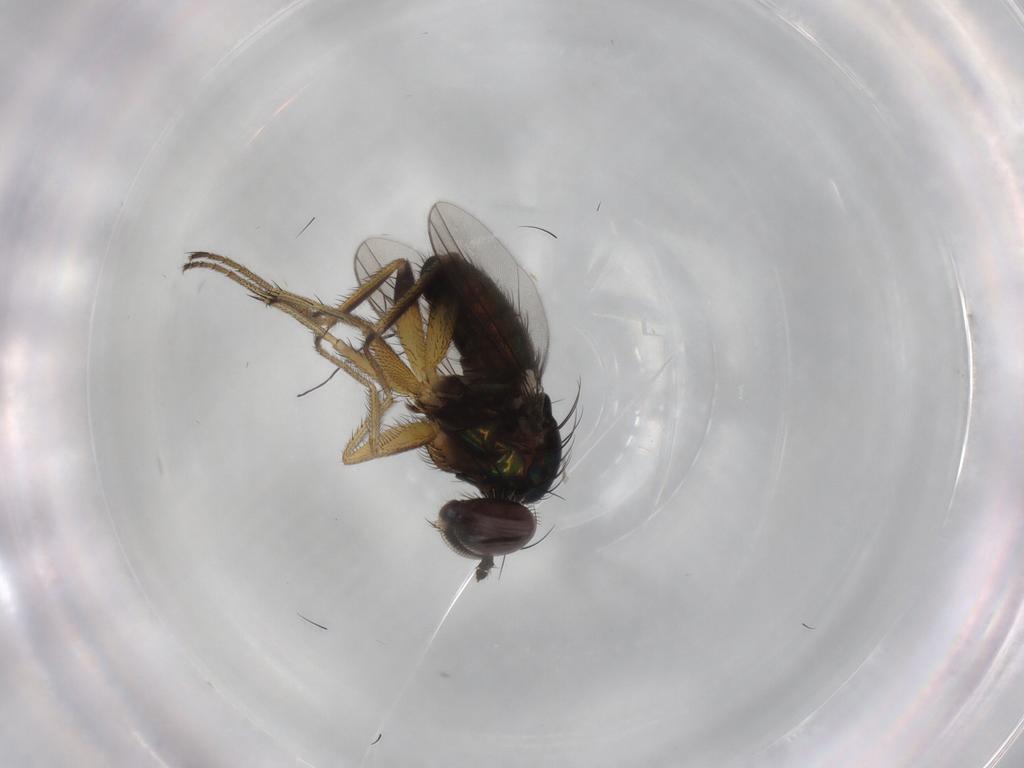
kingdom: Animalia
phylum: Arthropoda
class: Insecta
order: Diptera
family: Dolichopodidae
